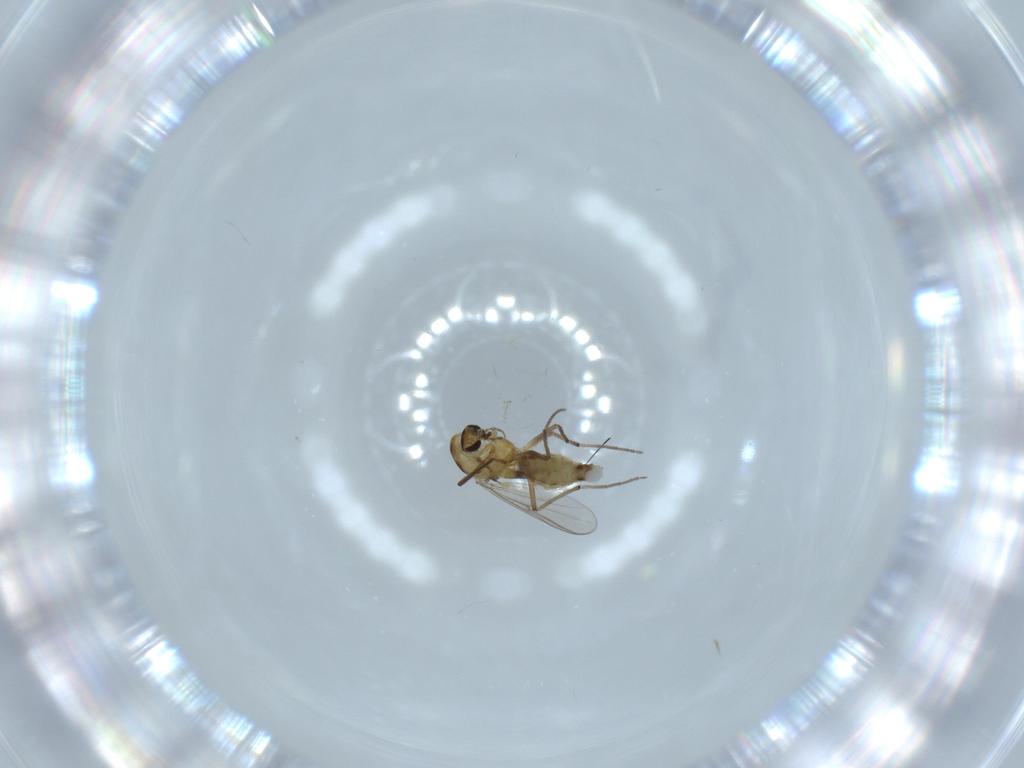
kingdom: Animalia
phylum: Arthropoda
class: Insecta
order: Diptera
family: Chironomidae
